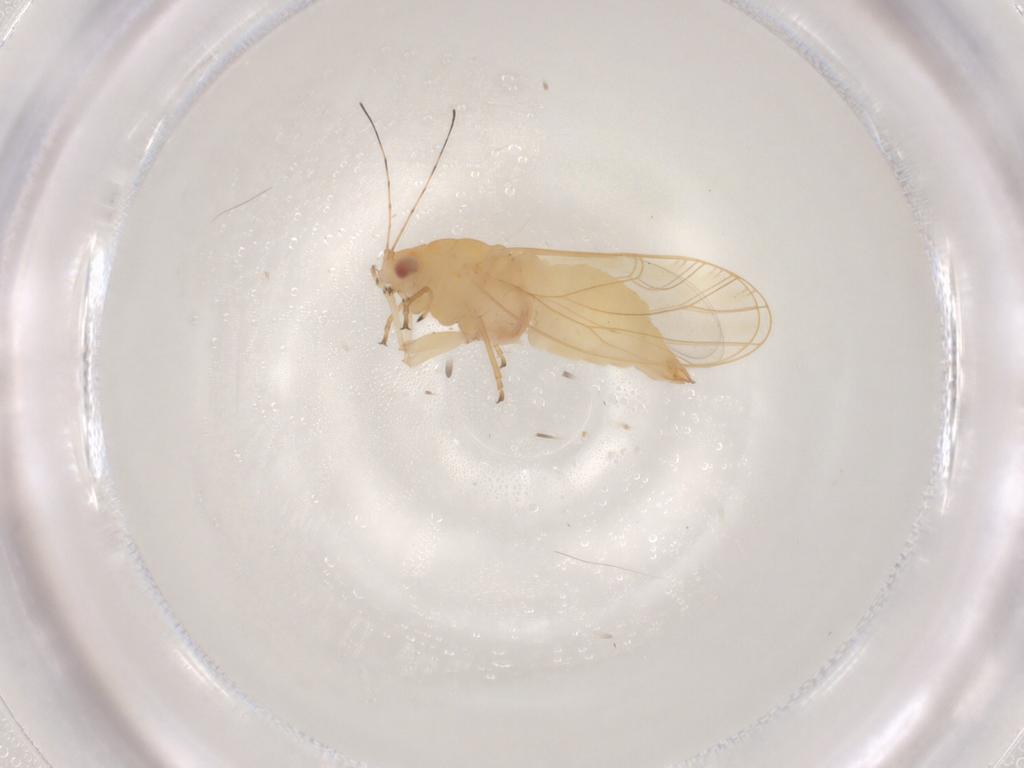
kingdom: Animalia
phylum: Arthropoda
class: Insecta
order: Hemiptera
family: Psyllidae
